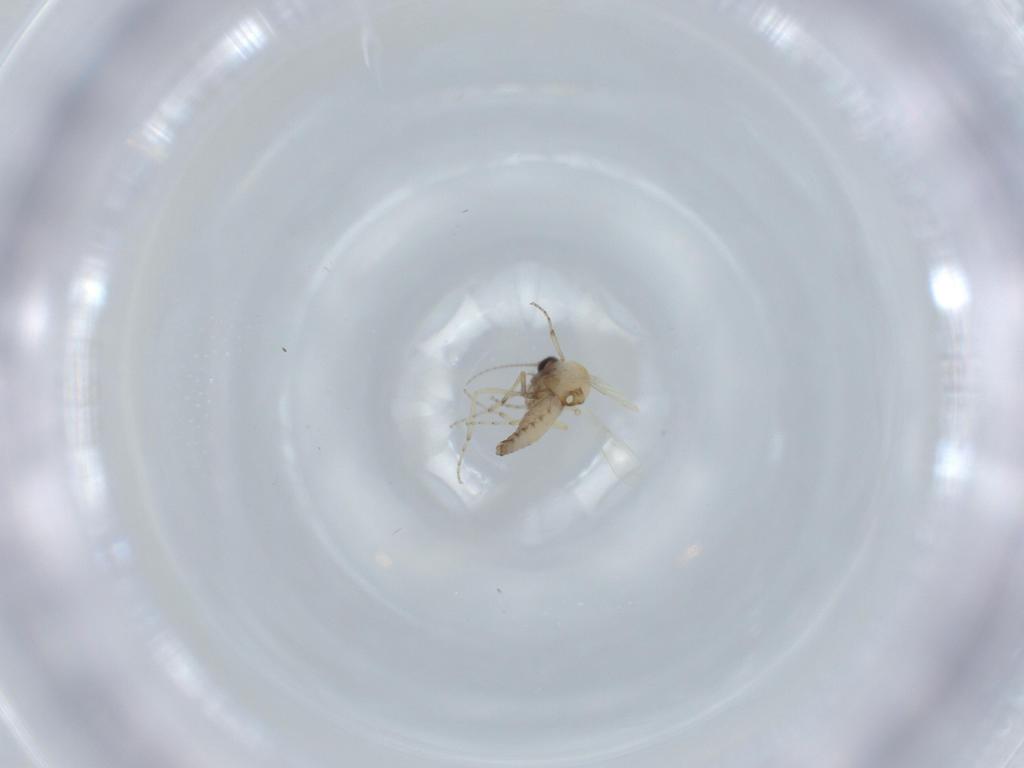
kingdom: Animalia
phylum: Arthropoda
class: Insecta
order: Diptera
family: Ceratopogonidae
